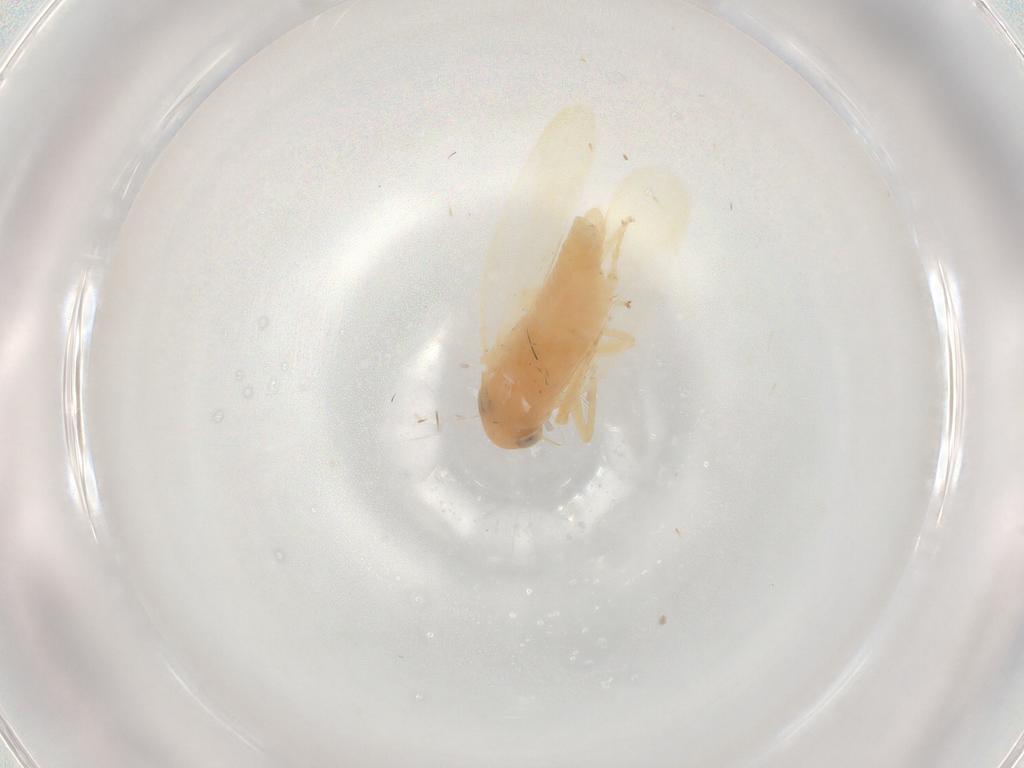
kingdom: Animalia
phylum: Arthropoda
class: Insecta
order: Hemiptera
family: Cicadellidae
